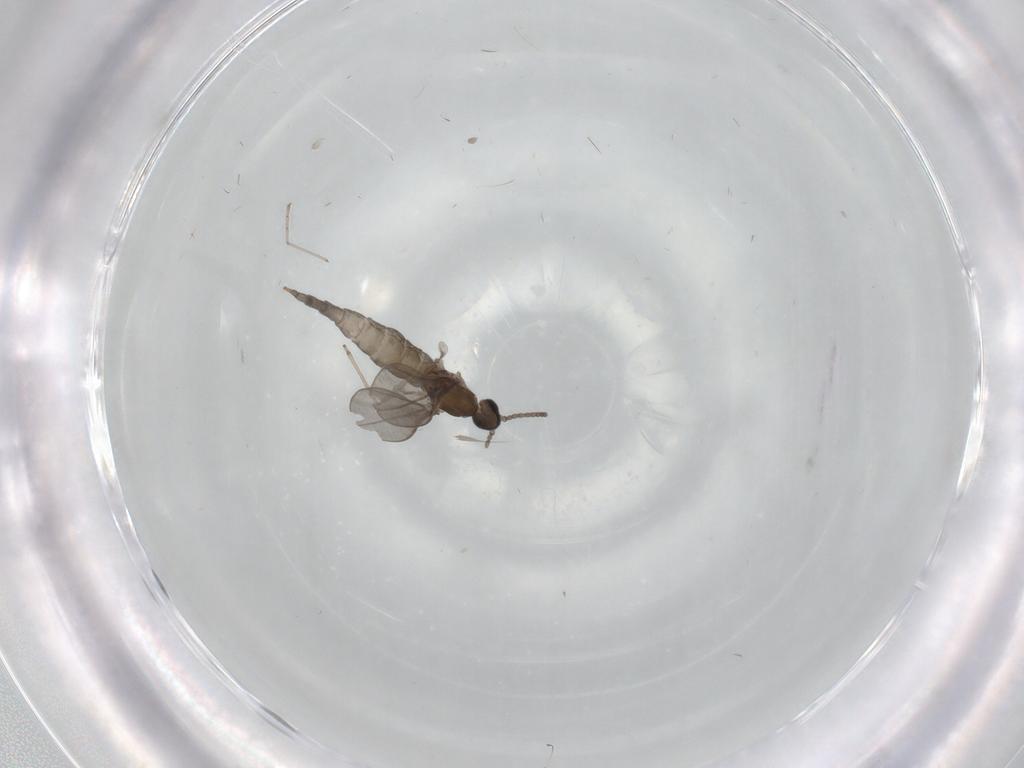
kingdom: Animalia
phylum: Arthropoda
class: Insecta
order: Diptera
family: Cecidomyiidae
